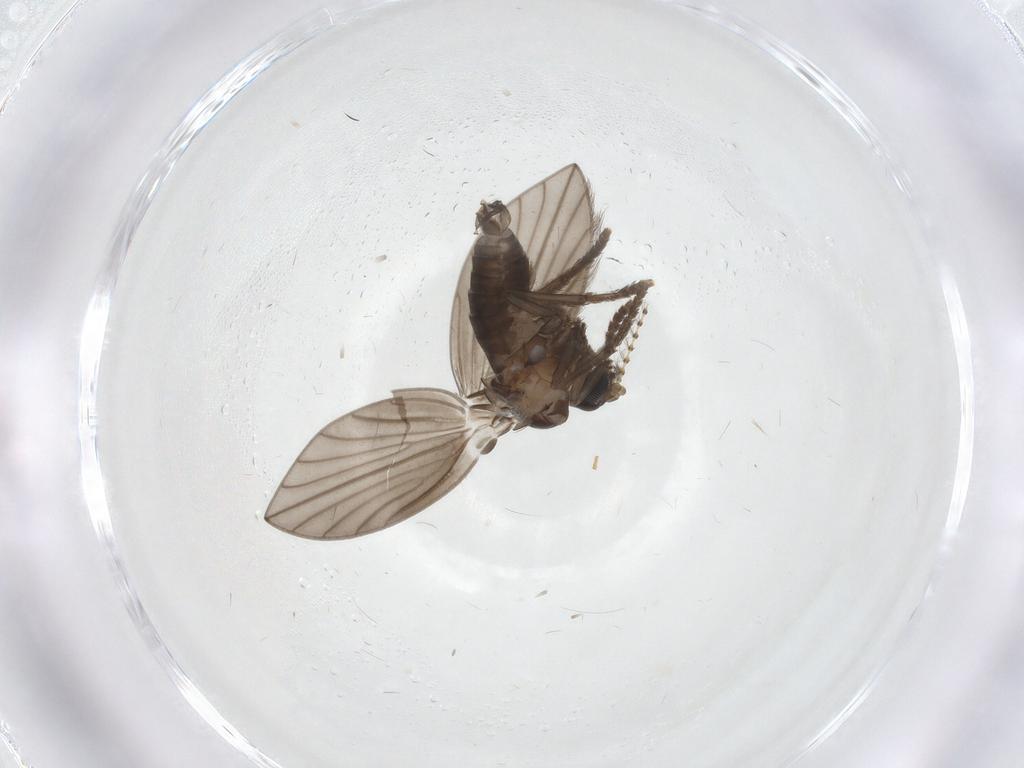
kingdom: Animalia
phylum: Arthropoda
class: Insecta
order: Diptera
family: Psychodidae
